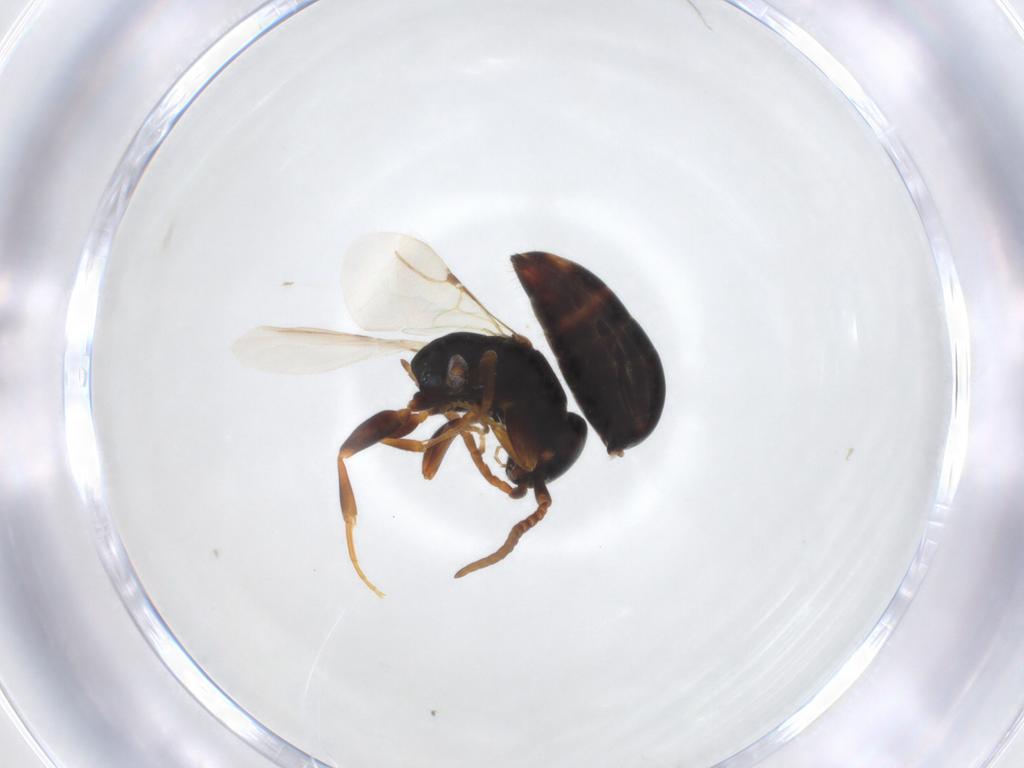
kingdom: Animalia
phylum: Arthropoda
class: Insecta
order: Hymenoptera
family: Bethylidae
